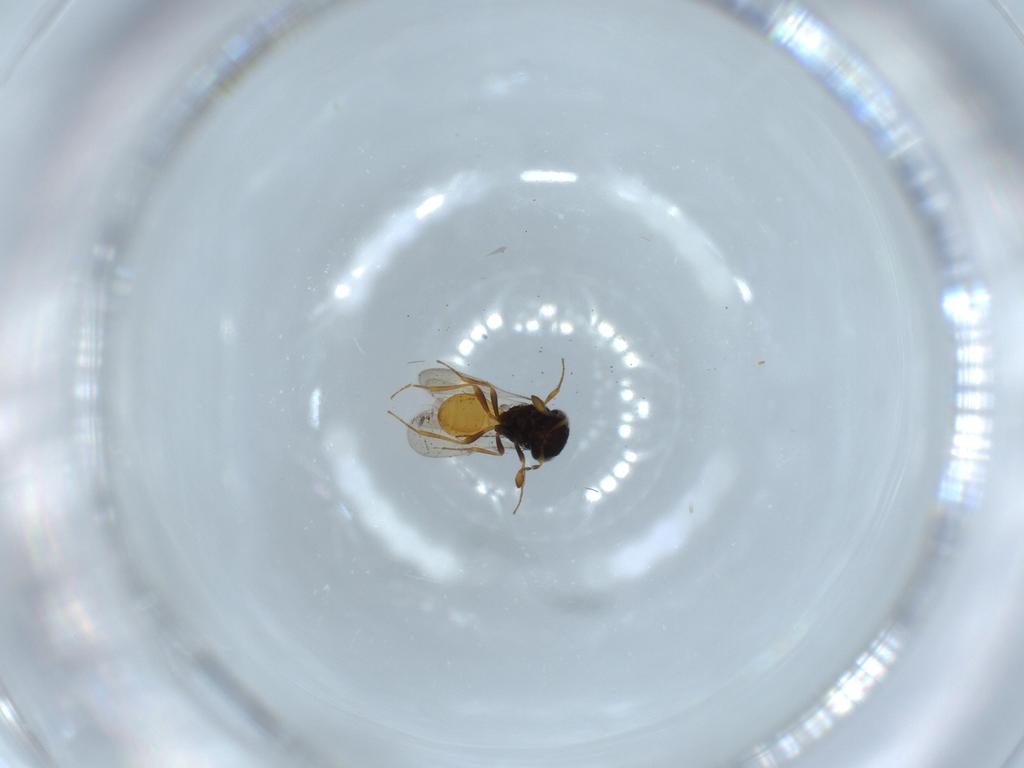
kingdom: Animalia
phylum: Arthropoda
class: Insecta
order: Hymenoptera
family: Scelionidae
